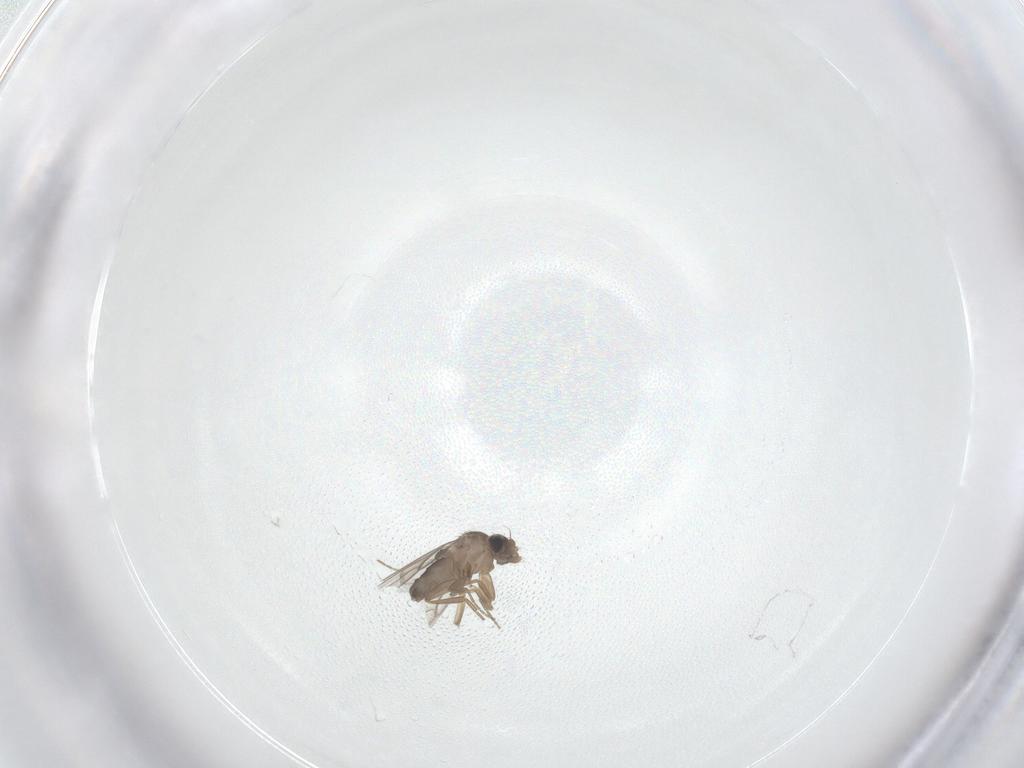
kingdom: Animalia
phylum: Arthropoda
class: Insecta
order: Diptera
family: Phoridae
